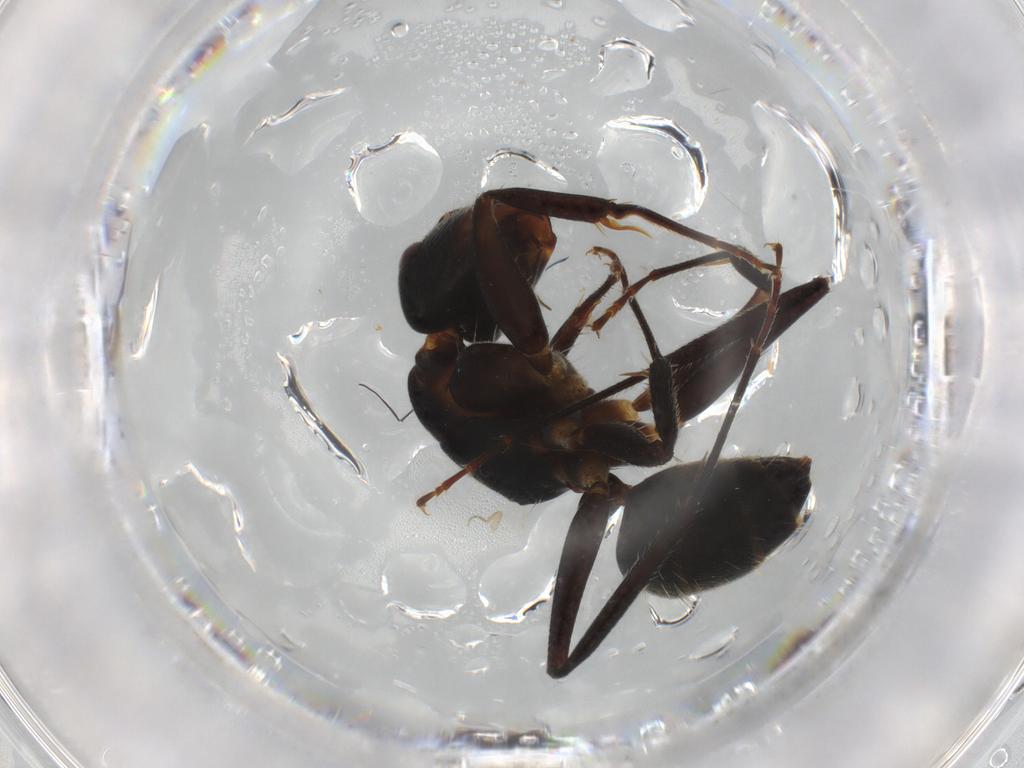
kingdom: Animalia
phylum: Arthropoda
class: Insecta
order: Hymenoptera
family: Formicidae
